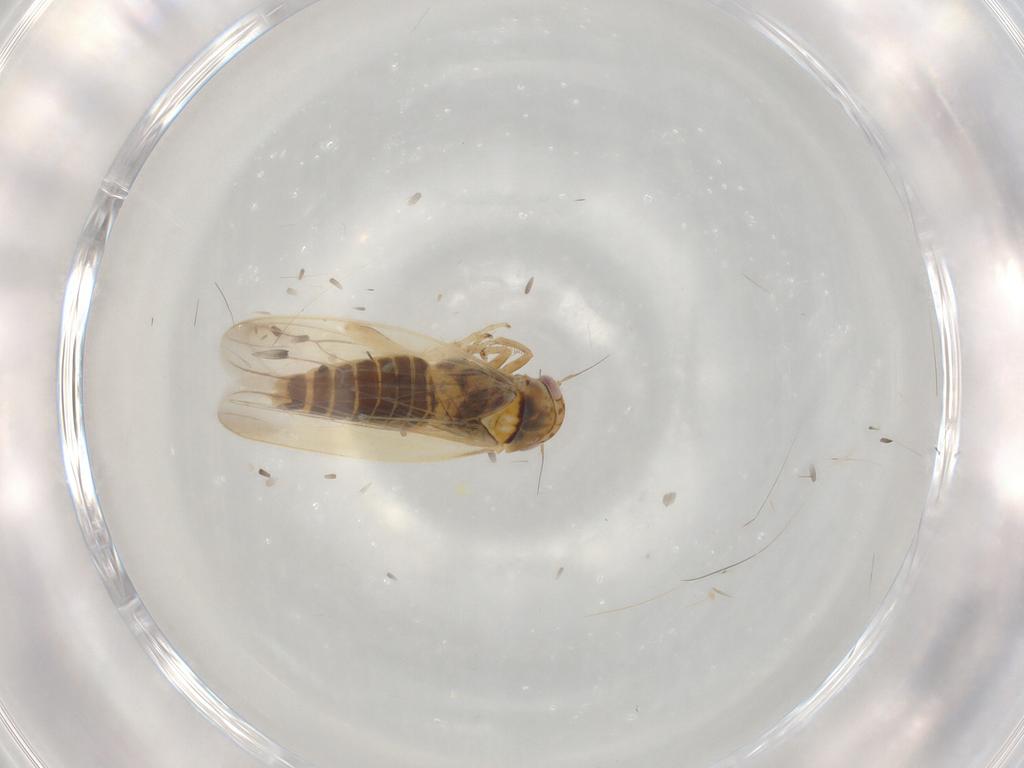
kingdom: Animalia
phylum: Arthropoda
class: Insecta
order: Hemiptera
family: Cicadellidae
